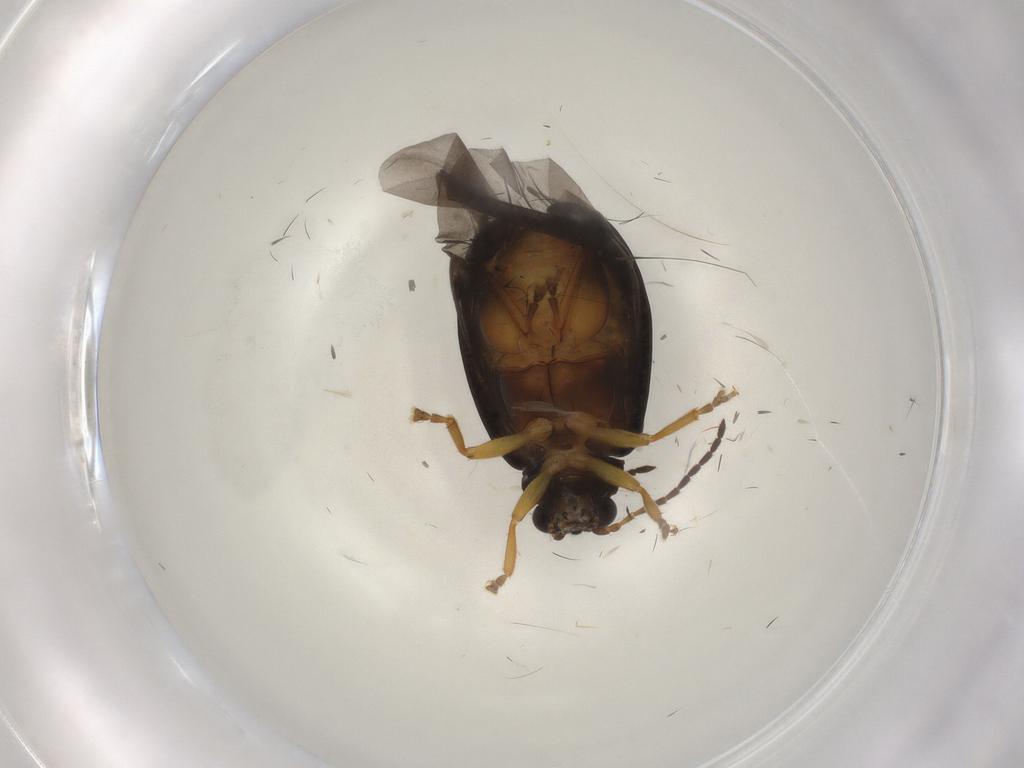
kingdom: Animalia
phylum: Arthropoda
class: Insecta
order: Coleoptera
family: Chrysomelidae
